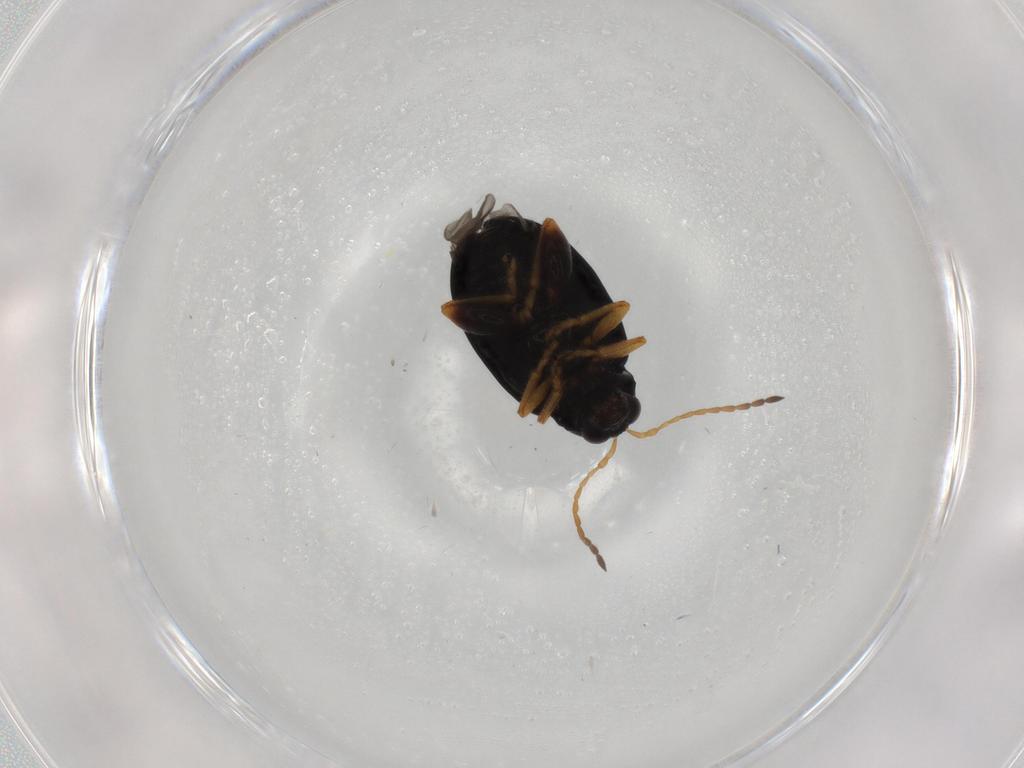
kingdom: Animalia
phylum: Arthropoda
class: Insecta
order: Coleoptera
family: Chrysomelidae
